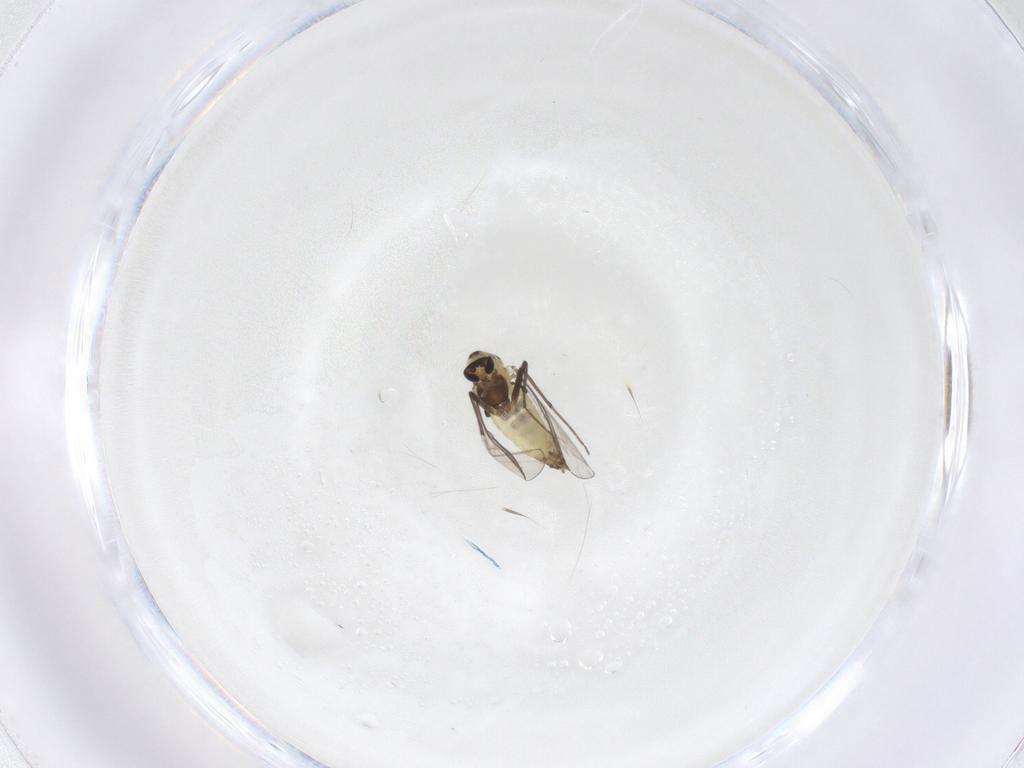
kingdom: Animalia
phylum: Arthropoda
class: Insecta
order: Diptera
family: Chironomidae
